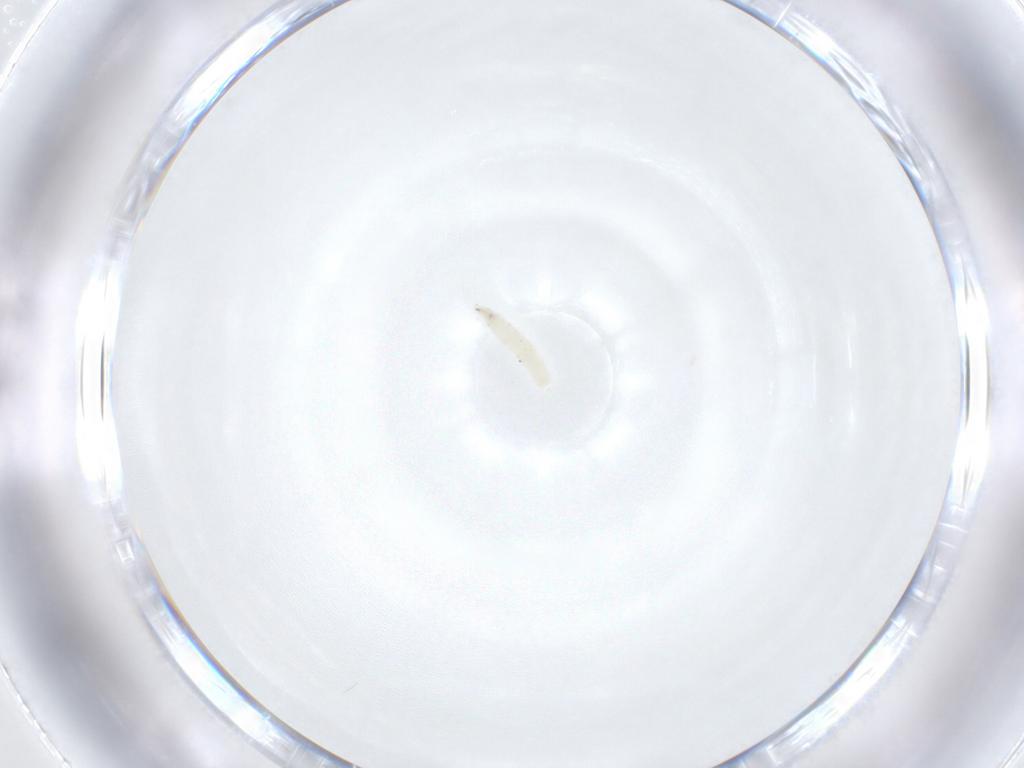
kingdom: Animalia
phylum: Arthropoda
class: Insecta
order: Diptera
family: Sarcophagidae
